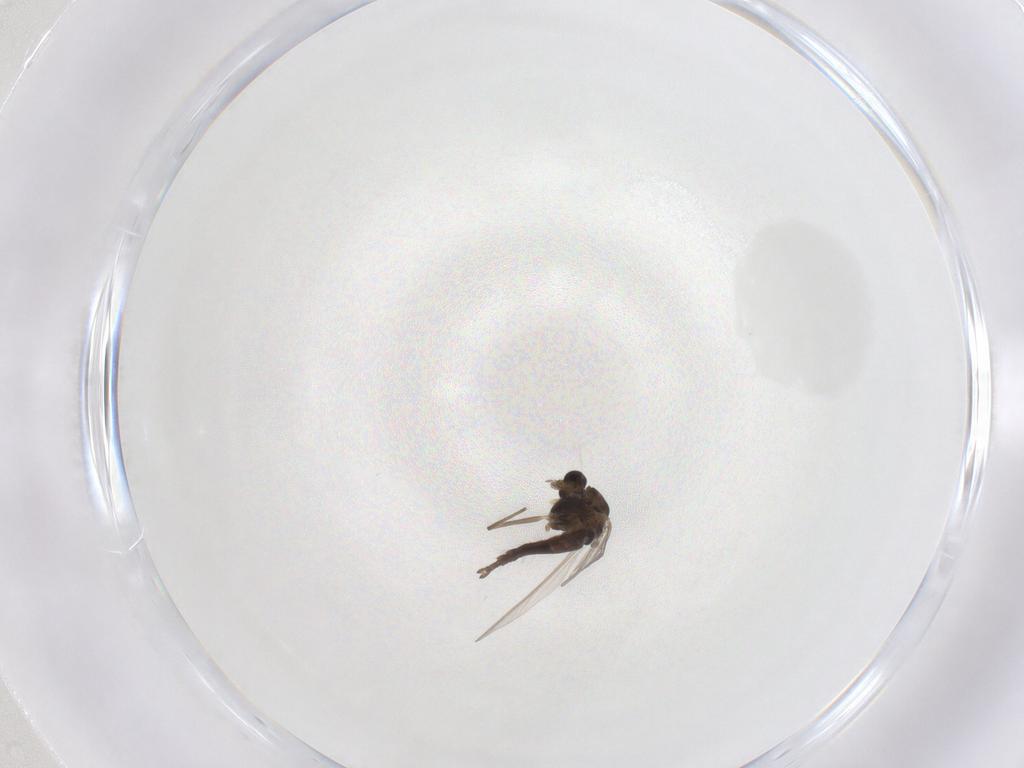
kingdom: Animalia
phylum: Arthropoda
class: Insecta
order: Diptera
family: Chironomidae
